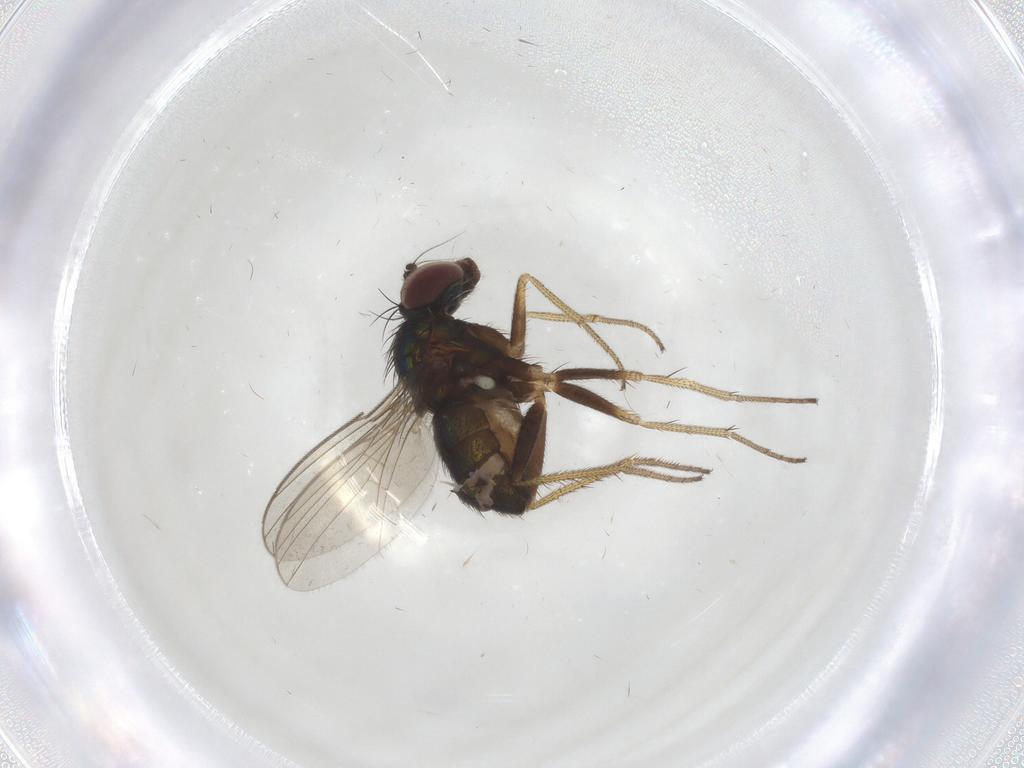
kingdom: Animalia
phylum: Arthropoda
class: Insecta
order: Diptera
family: Dolichopodidae
